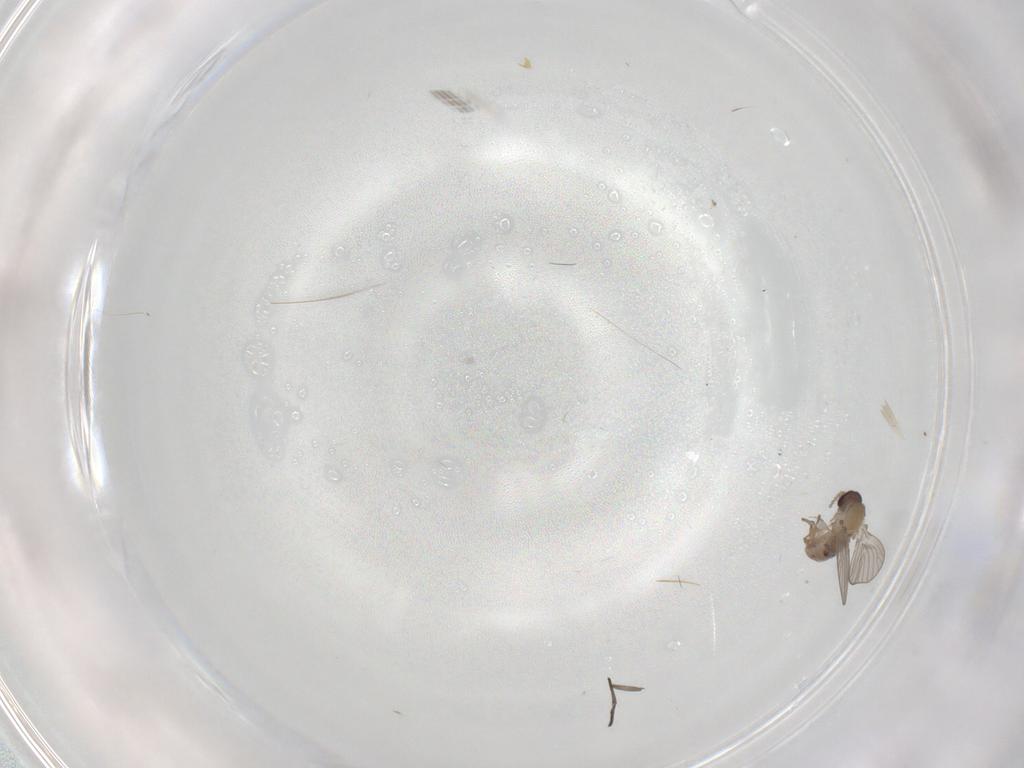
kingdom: Animalia
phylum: Arthropoda
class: Insecta
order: Diptera
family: Psychodidae
